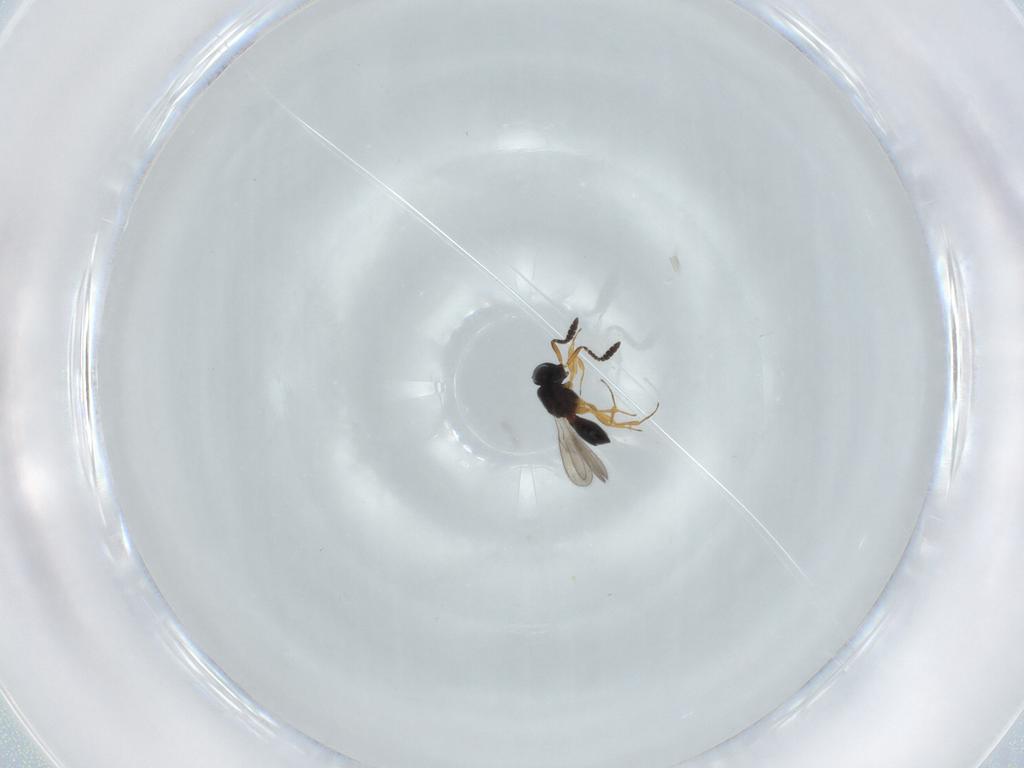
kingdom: Animalia
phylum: Arthropoda
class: Insecta
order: Hymenoptera
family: Scelionidae
